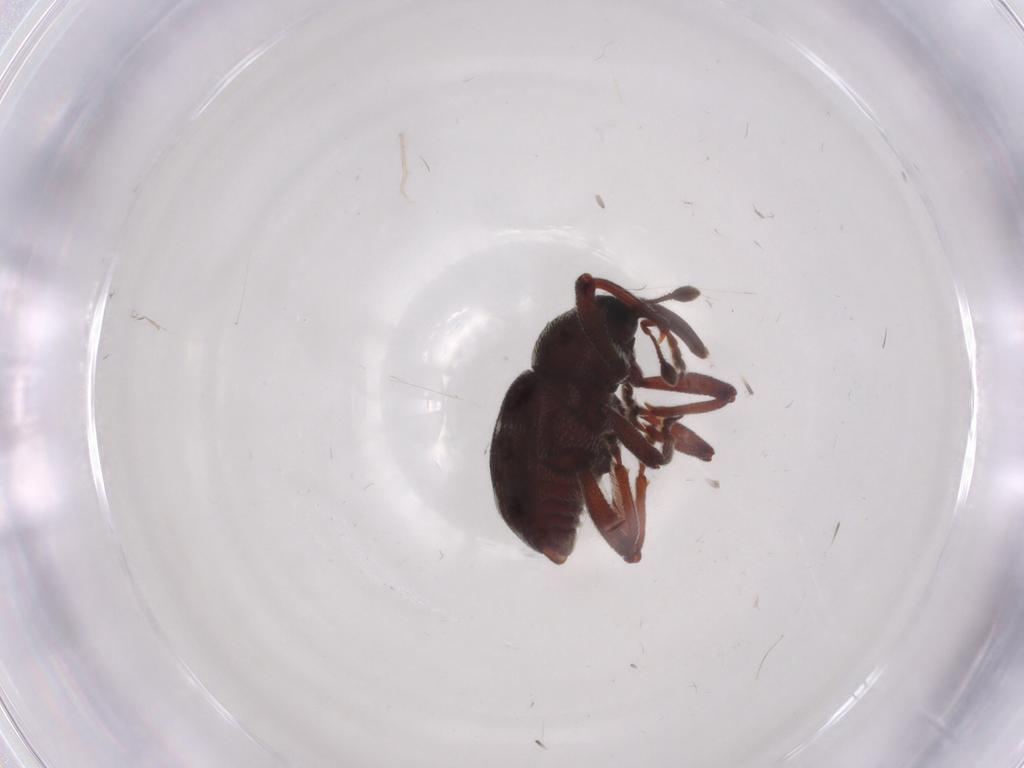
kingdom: Animalia
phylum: Arthropoda
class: Insecta
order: Coleoptera
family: Curculionidae
